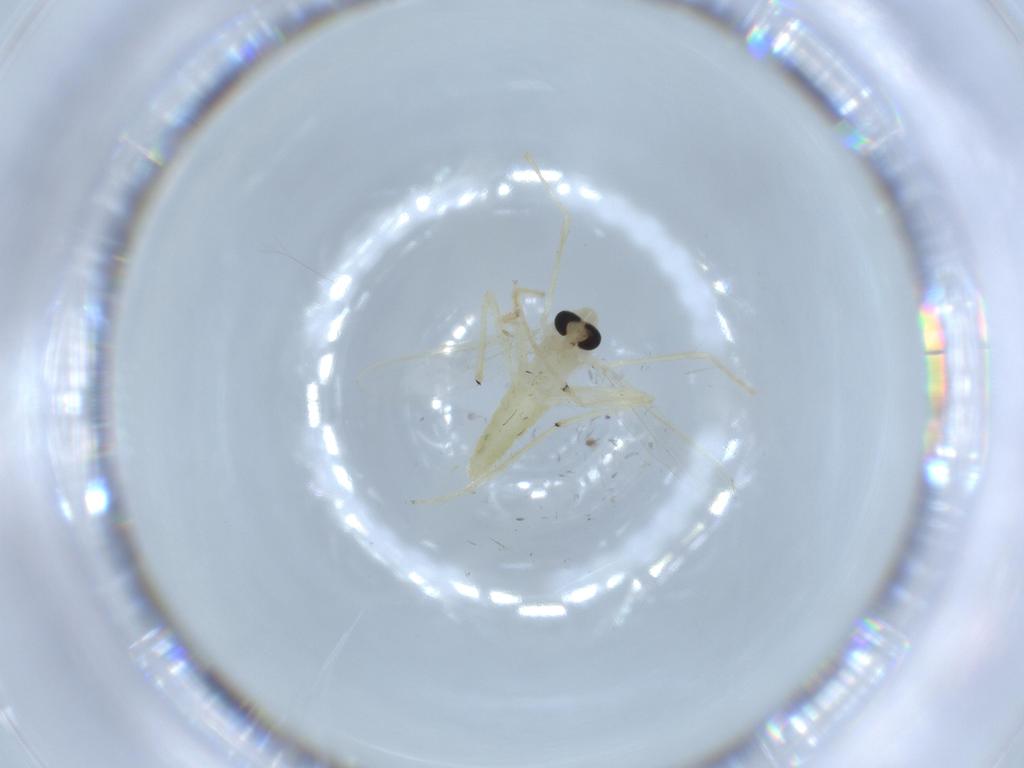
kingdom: Animalia
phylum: Arthropoda
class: Insecta
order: Diptera
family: Chironomidae
